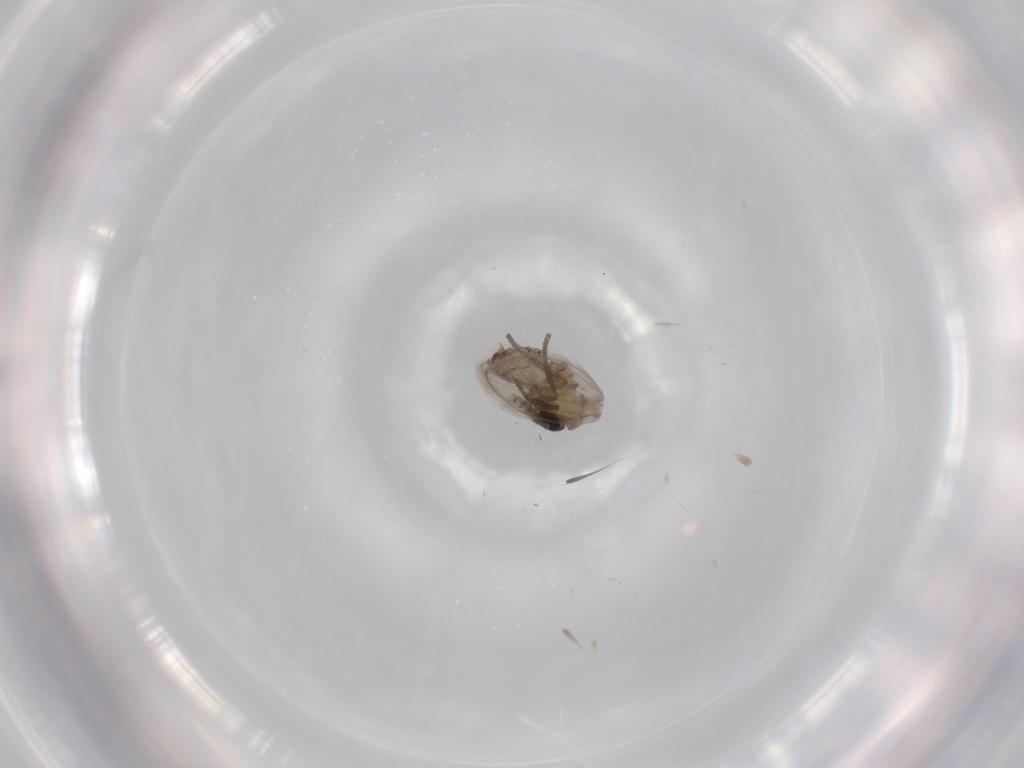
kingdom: Animalia
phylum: Arthropoda
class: Insecta
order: Diptera
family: Psychodidae
